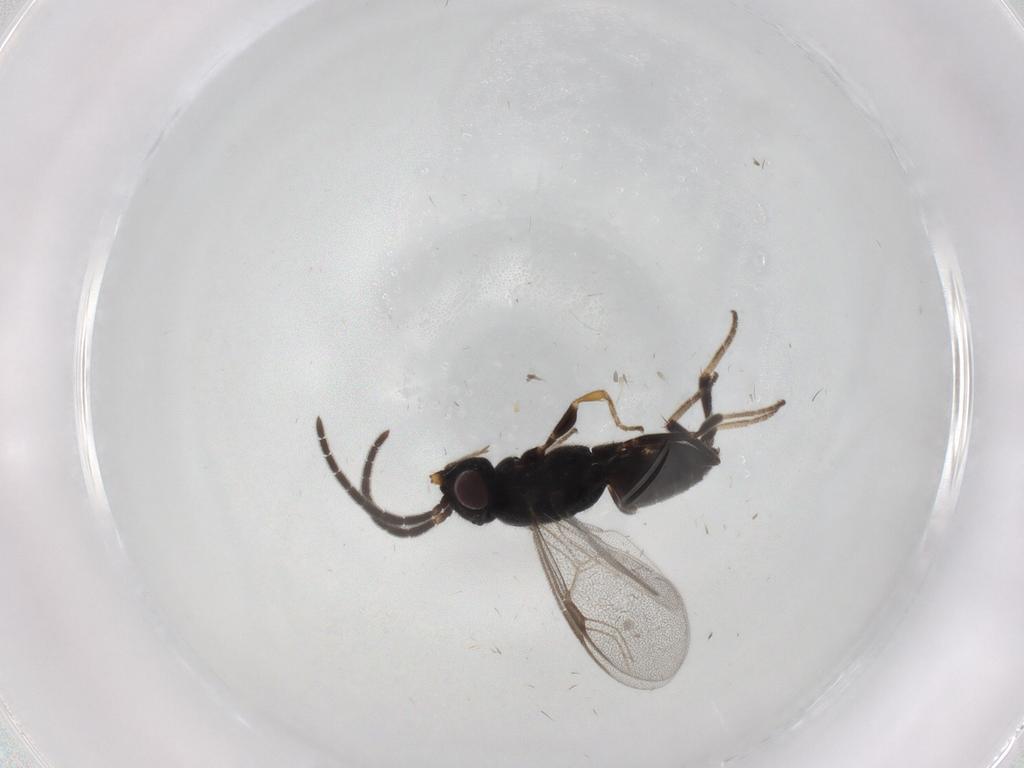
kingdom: Animalia
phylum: Arthropoda
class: Insecta
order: Hymenoptera
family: Dryinidae
